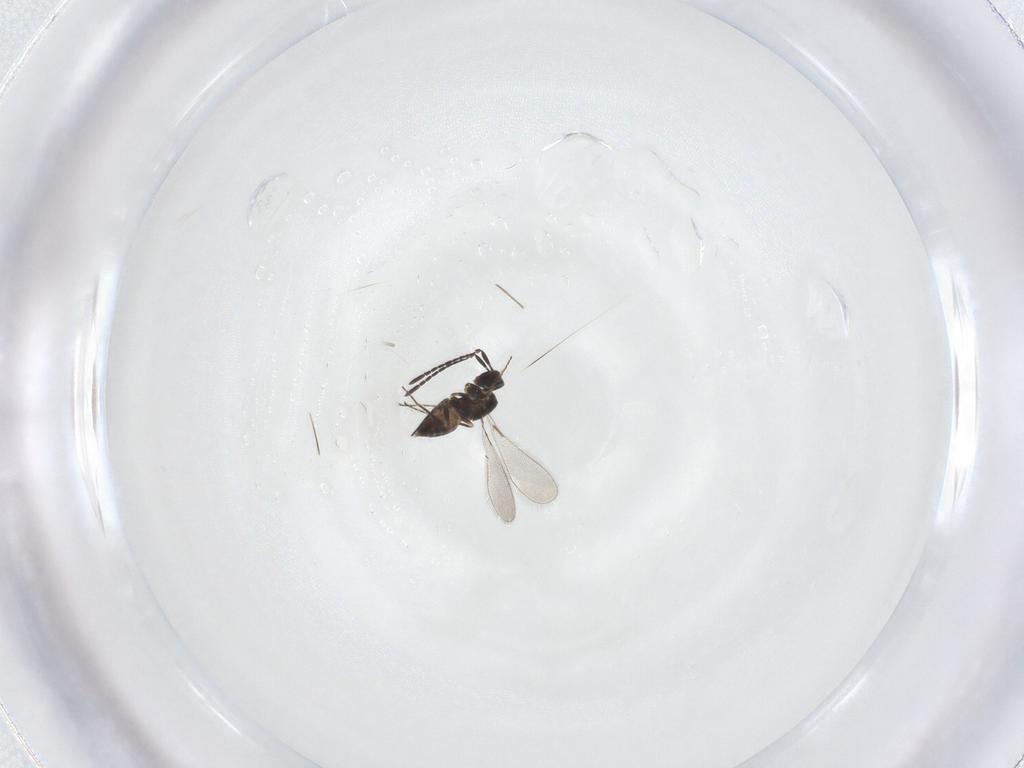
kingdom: Animalia
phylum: Arthropoda
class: Insecta
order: Hymenoptera
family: Mymaridae
